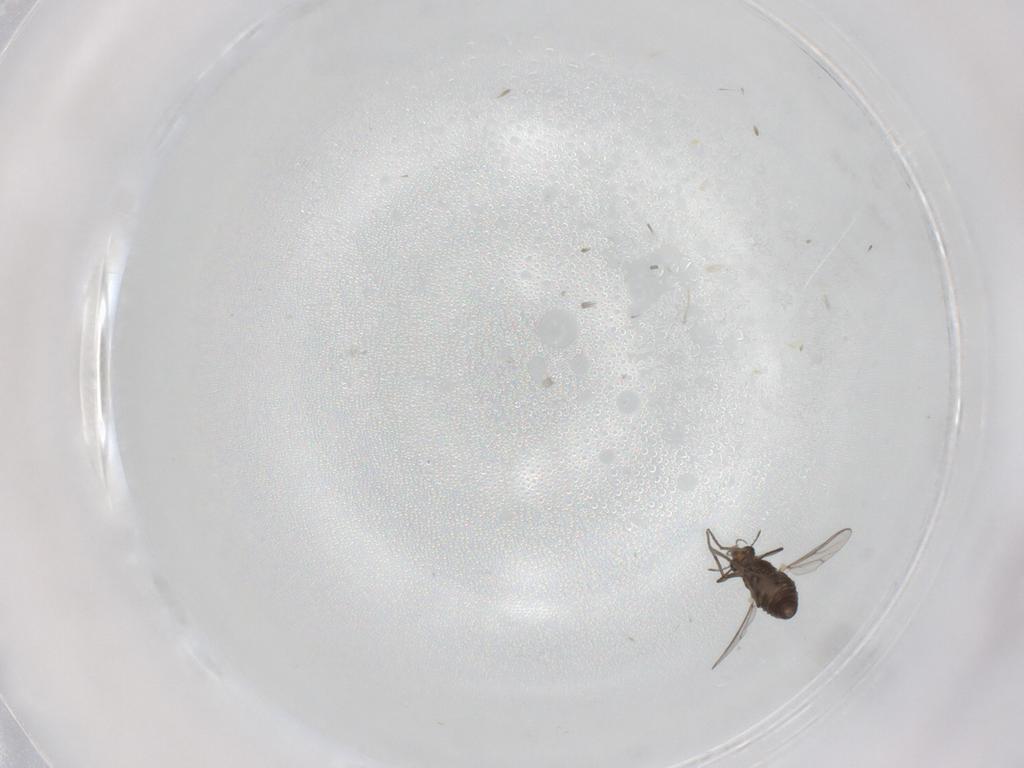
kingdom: Animalia
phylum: Arthropoda
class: Insecta
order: Diptera
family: Chironomidae
